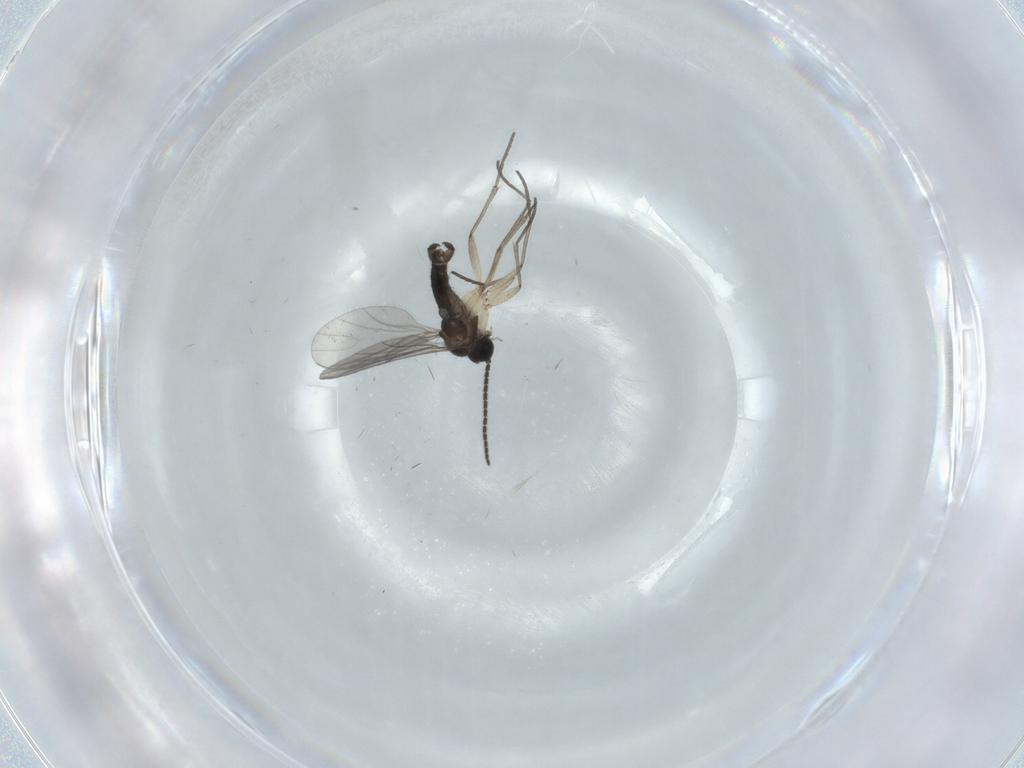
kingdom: Animalia
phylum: Arthropoda
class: Insecta
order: Diptera
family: Sciaridae
